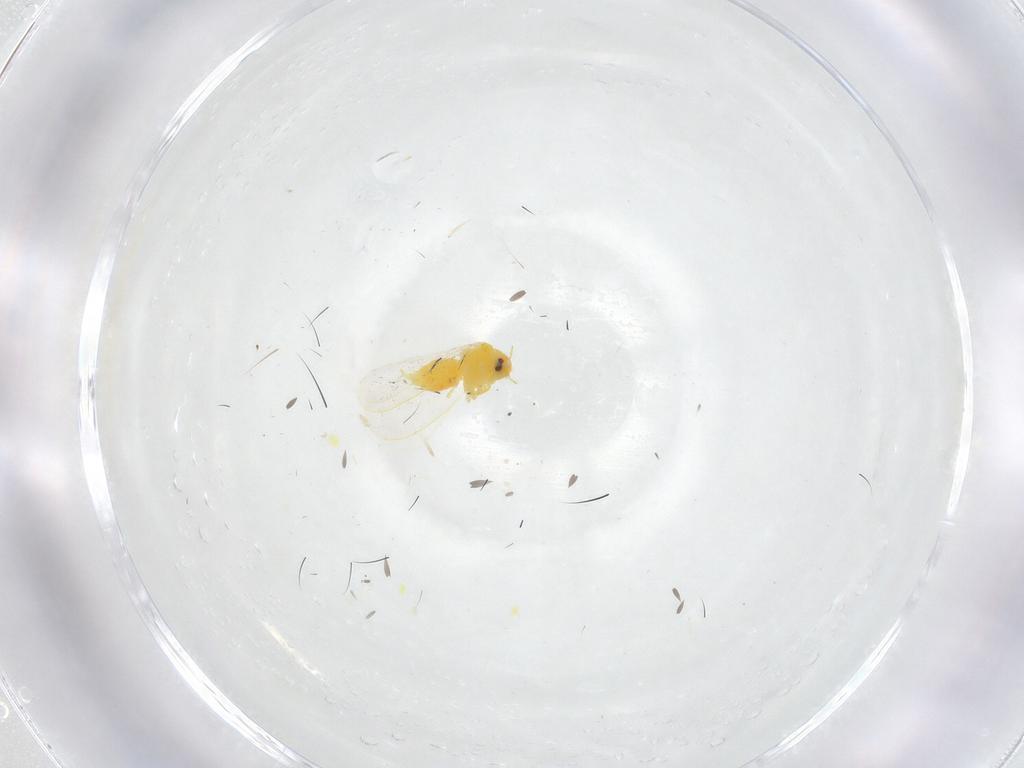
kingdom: Animalia
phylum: Arthropoda
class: Insecta
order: Hemiptera
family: Aleyrodidae
